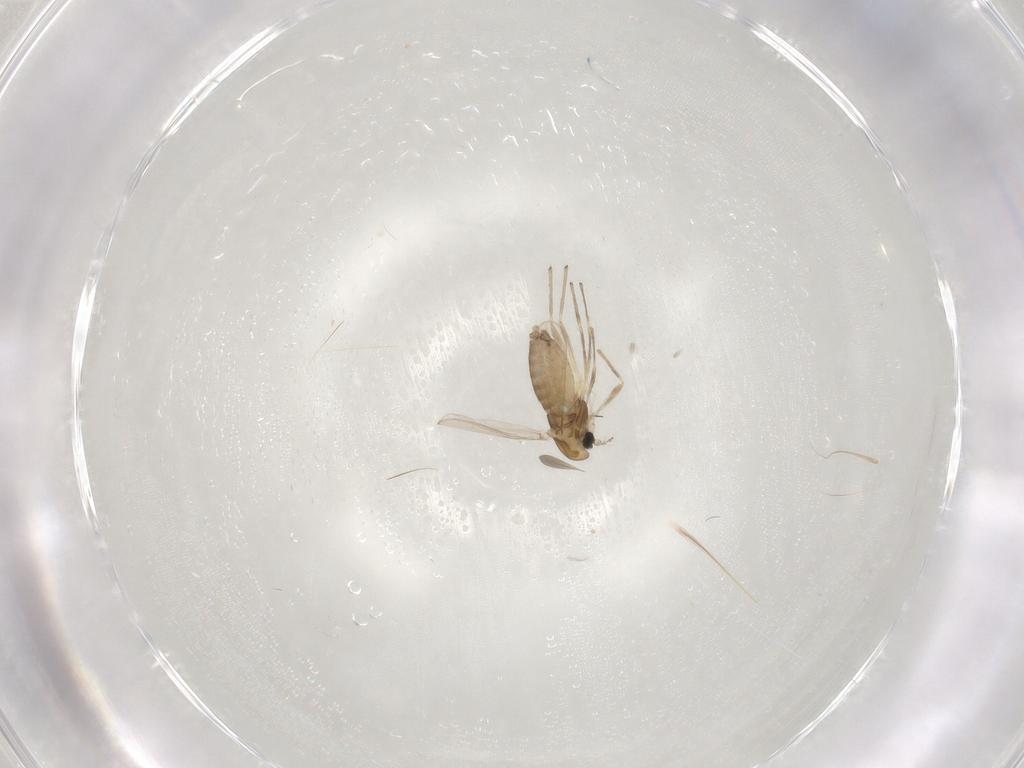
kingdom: Animalia
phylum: Arthropoda
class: Insecta
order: Diptera
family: Chironomidae
